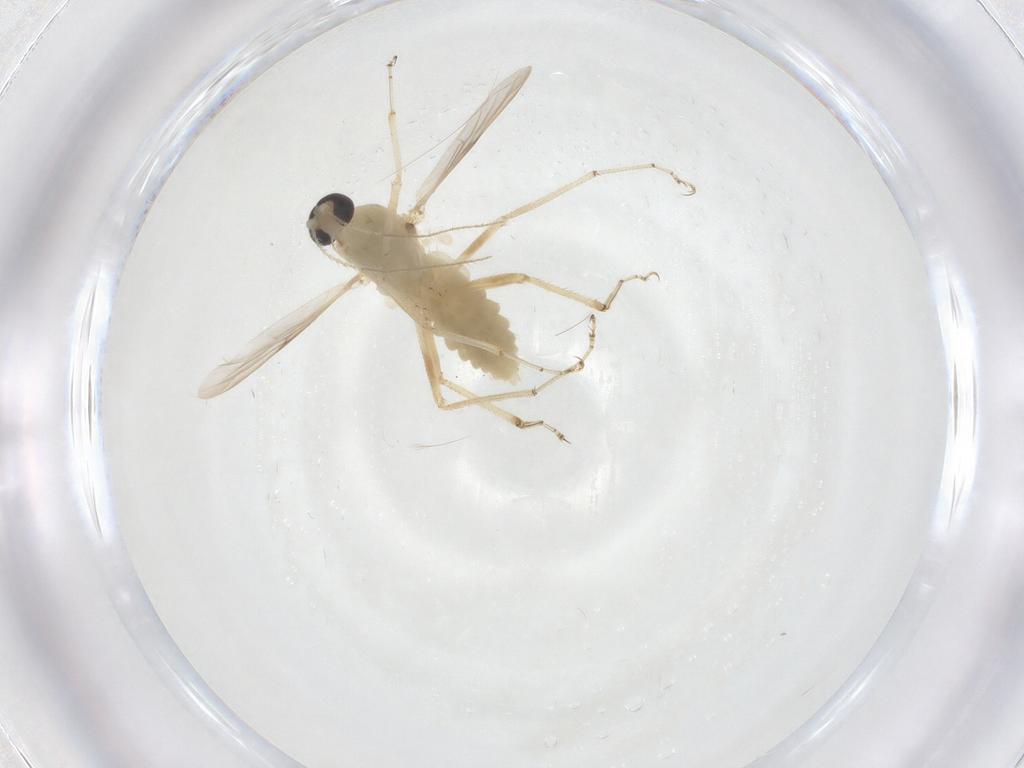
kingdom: Animalia
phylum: Arthropoda
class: Insecta
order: Diptera
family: Ceratopogonidae
